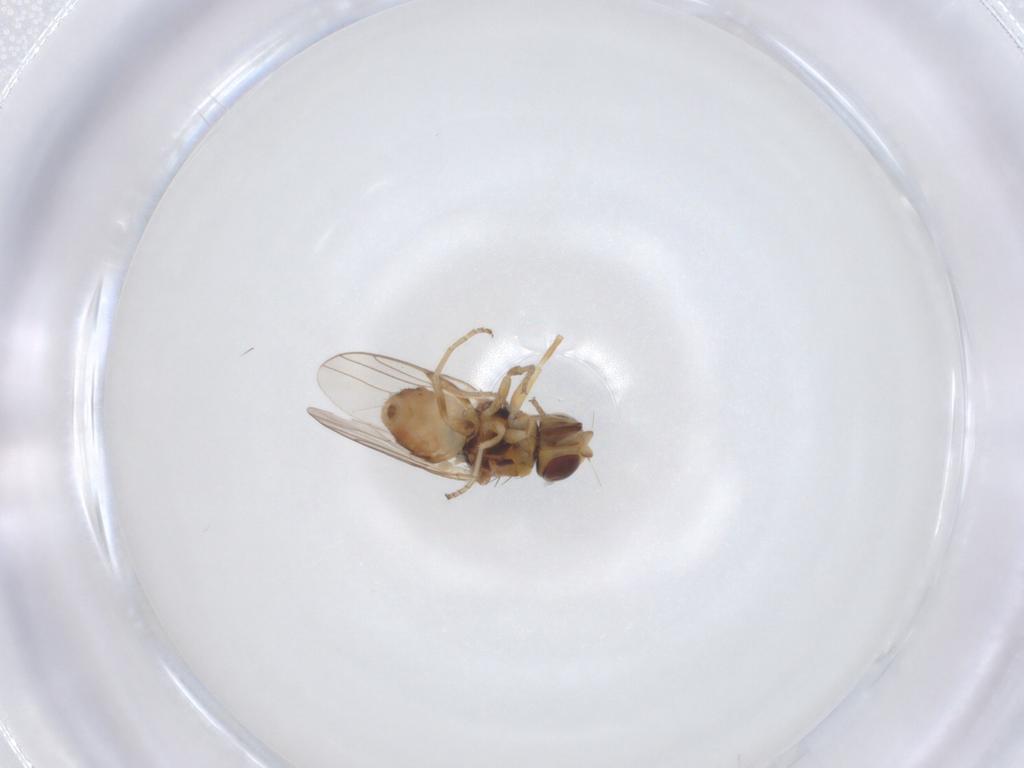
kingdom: Animalia
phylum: Arthropoda
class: Insecta
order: Diptera
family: Chloropidae
